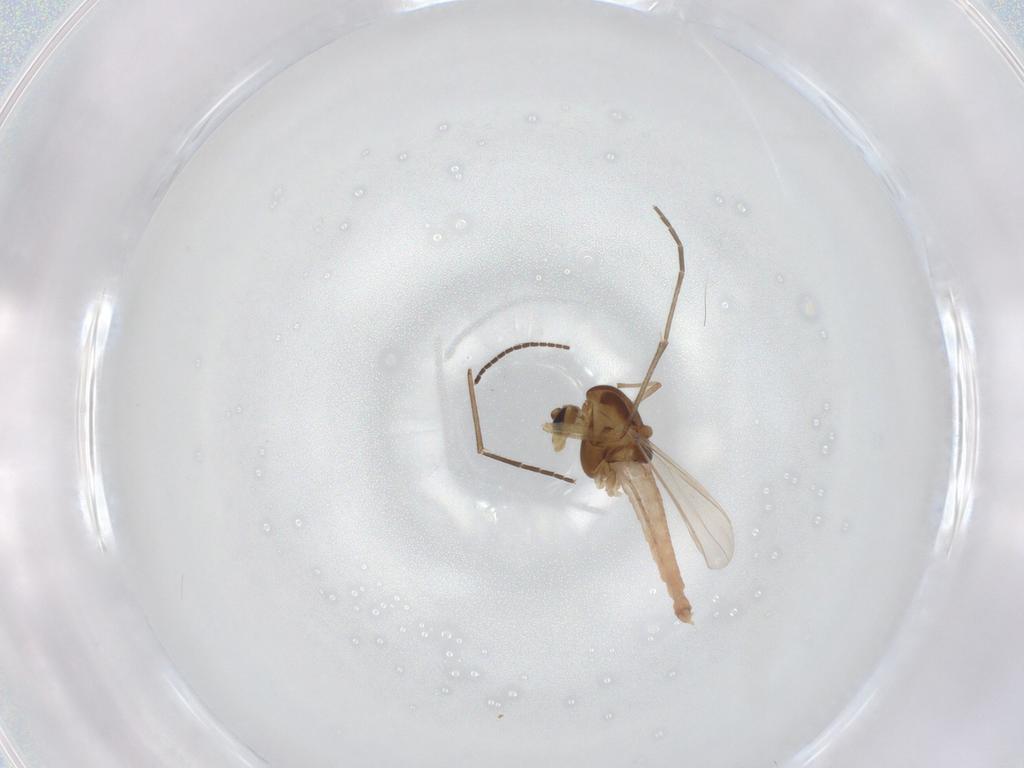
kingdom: Animalia
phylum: Arthropoda
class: Insecta
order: Diptera
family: Chironomidae
